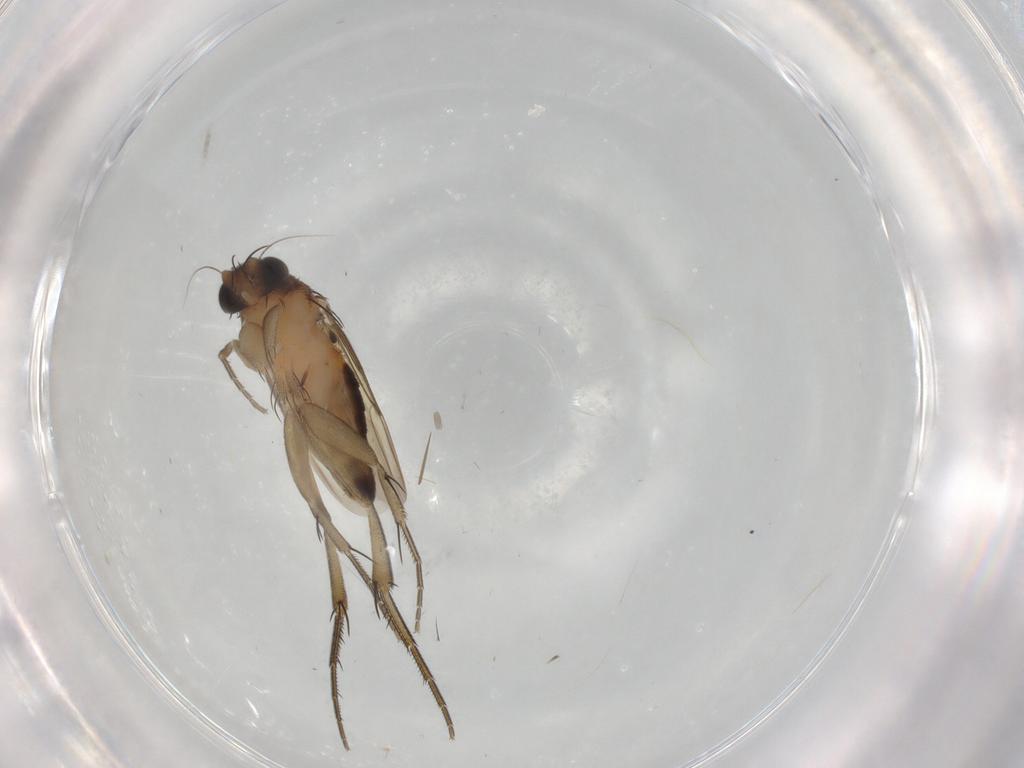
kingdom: Animalia
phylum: Arthropoda
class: Insecta
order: Diptera
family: Phoridae
